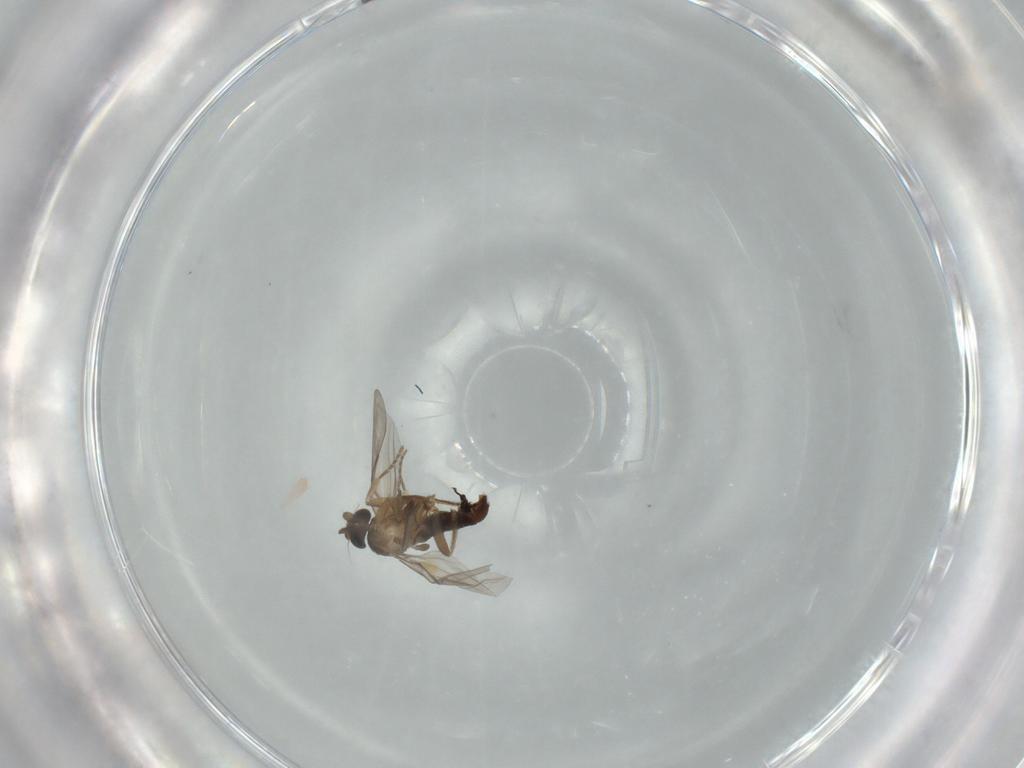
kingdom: Animalia
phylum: Arthropoda
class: Insecta
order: Diptera
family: Phoridae
